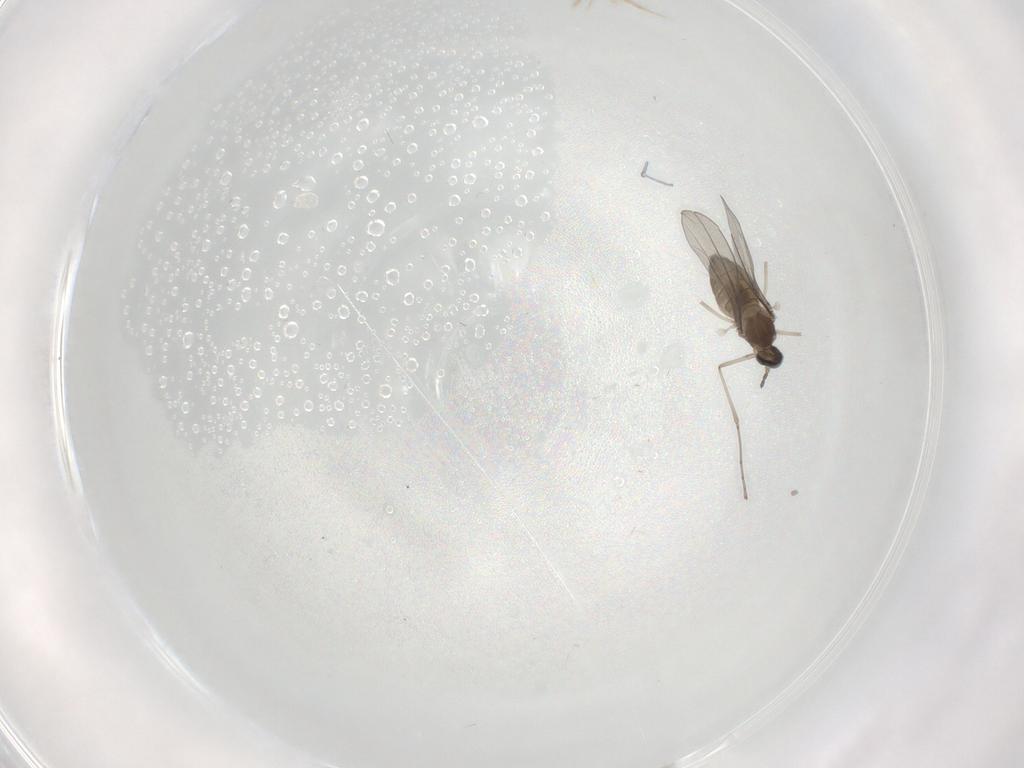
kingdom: Animalia
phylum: Arthropoda
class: Insecta
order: Diptera
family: Cecidomyiidae
